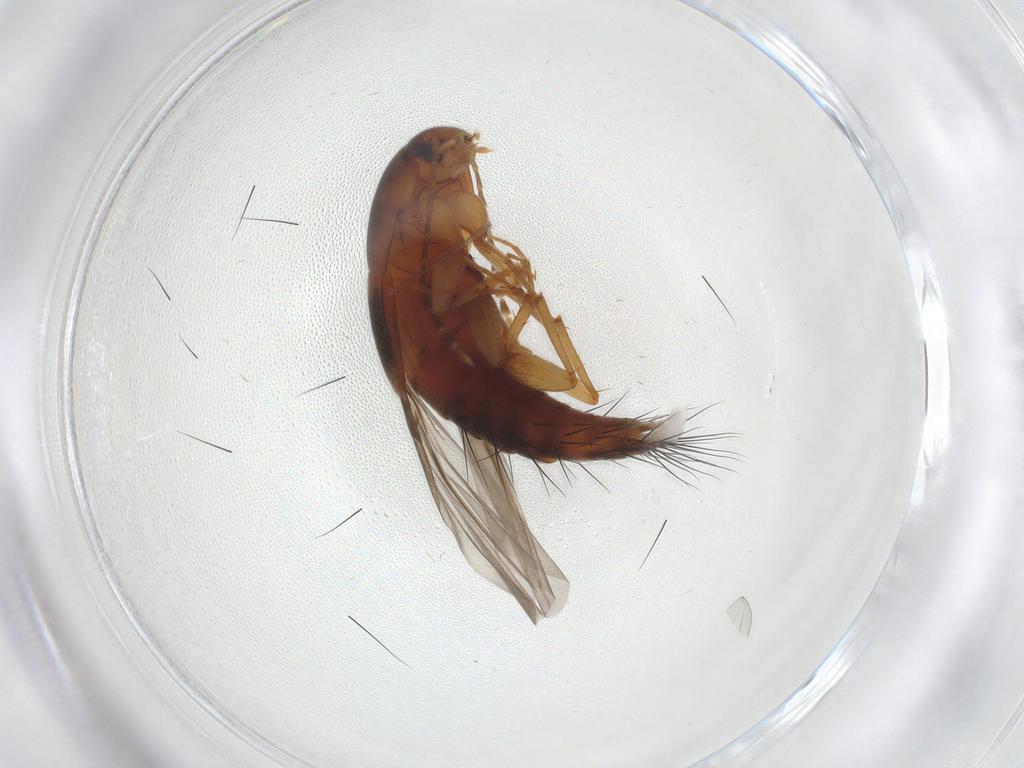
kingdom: Animalia
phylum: Arthropoda
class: Insecta
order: Coleoptera
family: Staphylinidae
